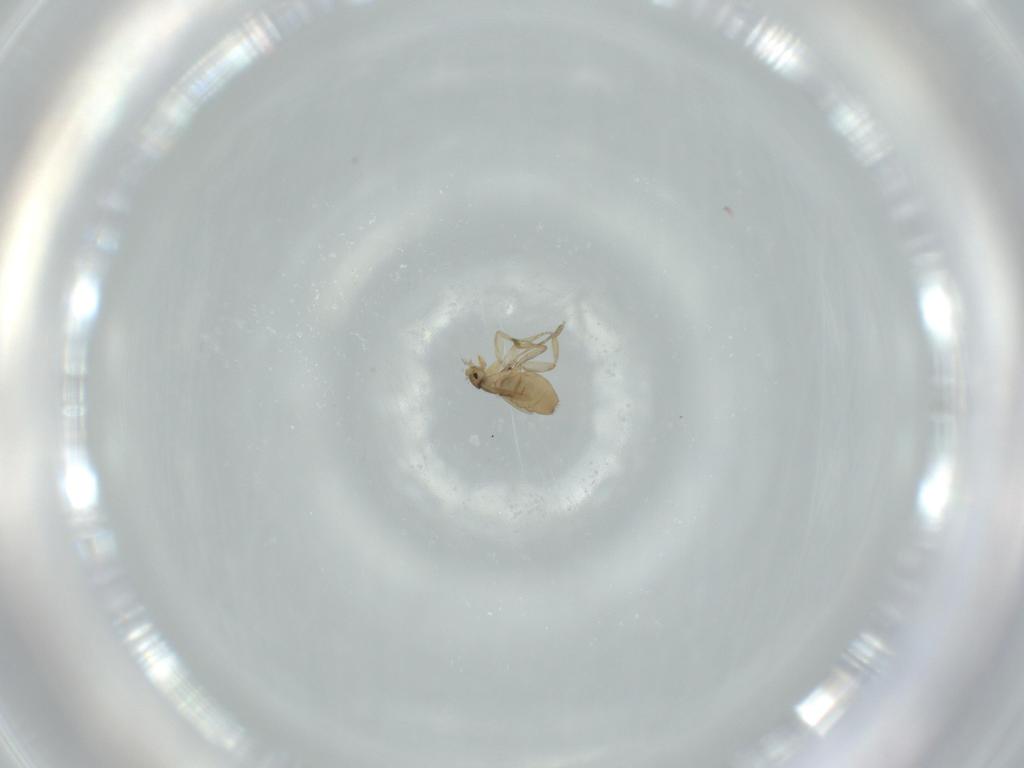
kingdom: Animalia
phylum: Arthropoda
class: Insecta
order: Diptera
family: Phoridae
